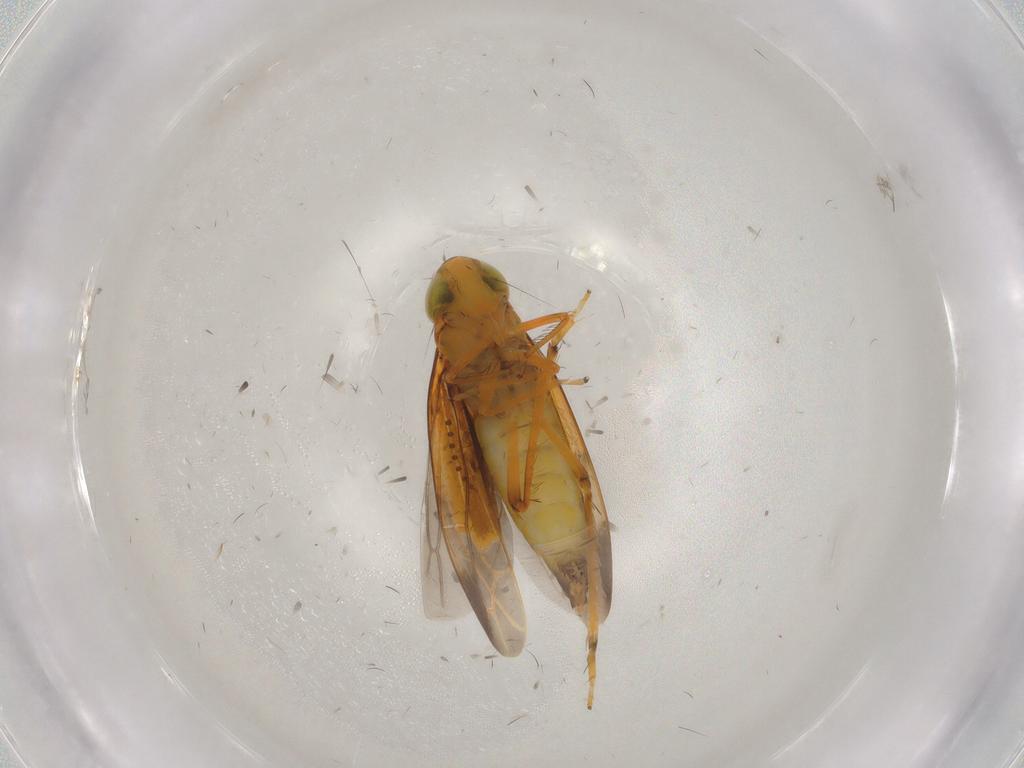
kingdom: Animalia
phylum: Arthropoda
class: Insecta
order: Hemiptera
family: Cicadellidae
